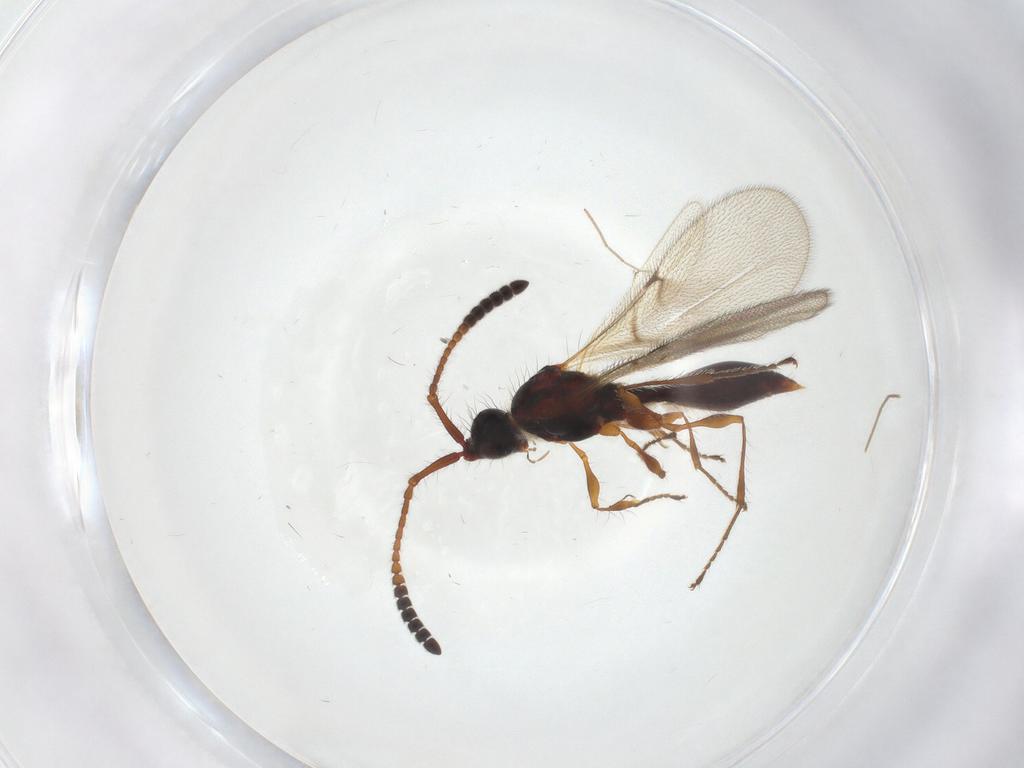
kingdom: Animalia
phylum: Arthropoda
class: Insecta
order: Hymenoptera
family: Diapriidae
